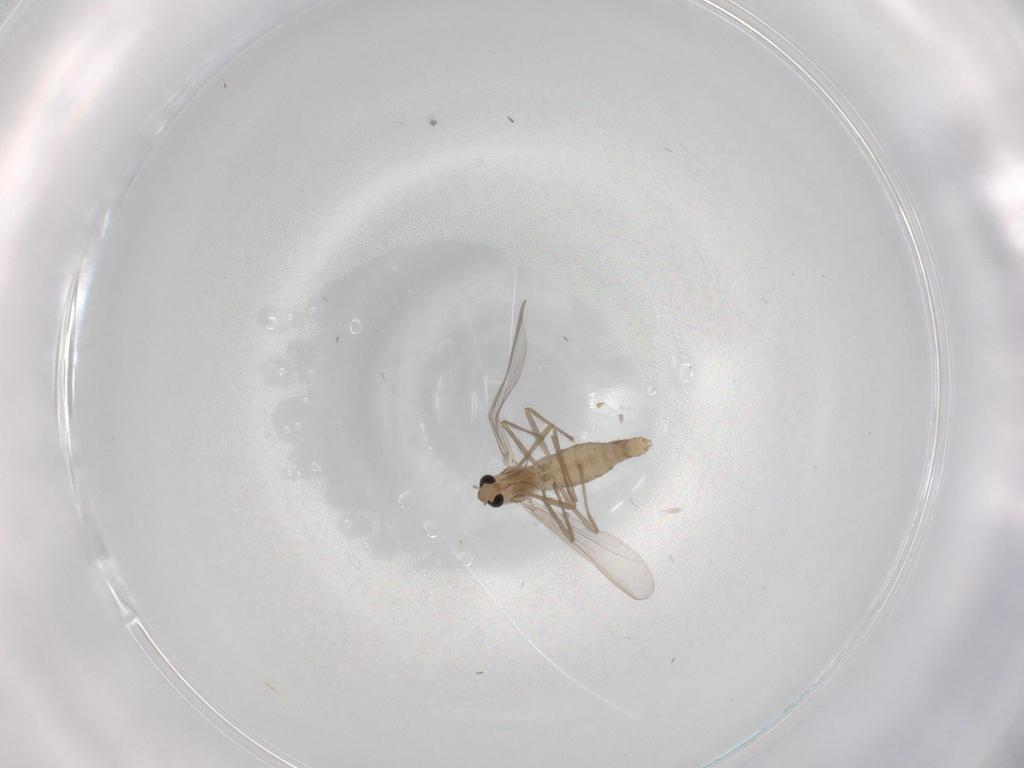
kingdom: Animalia
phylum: Arthropoda
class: Insecta
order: Diptera
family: Chironomidae
